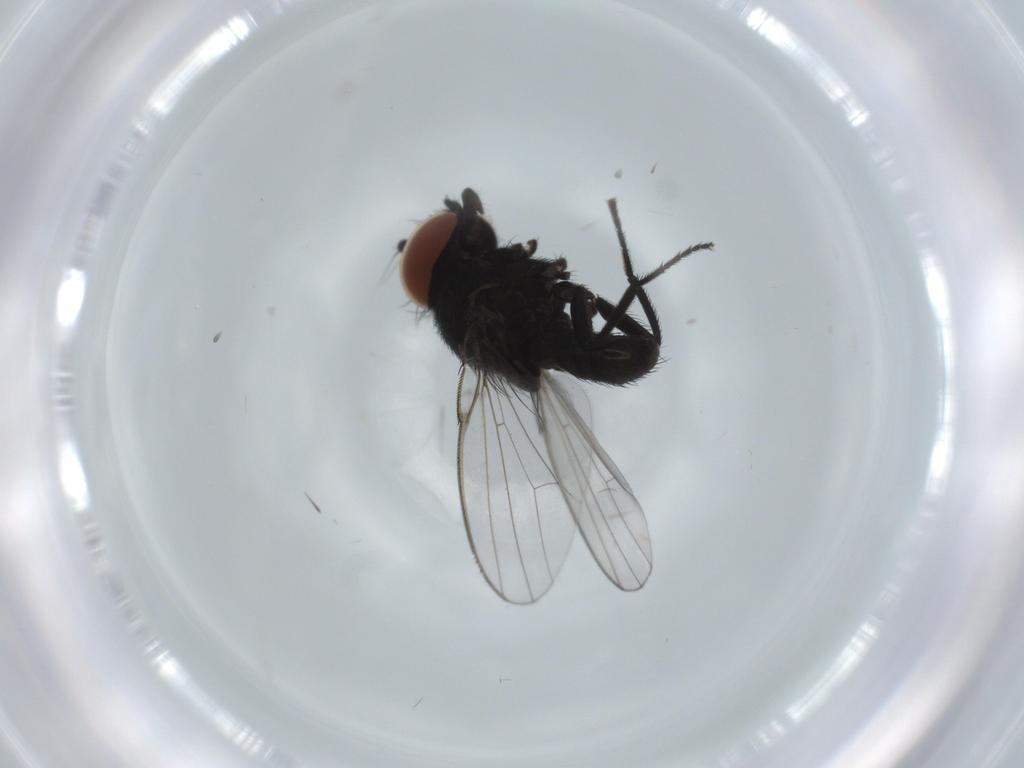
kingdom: Animalia
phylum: Arthropoda
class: Insecta
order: Diptera
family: Milichiidae
